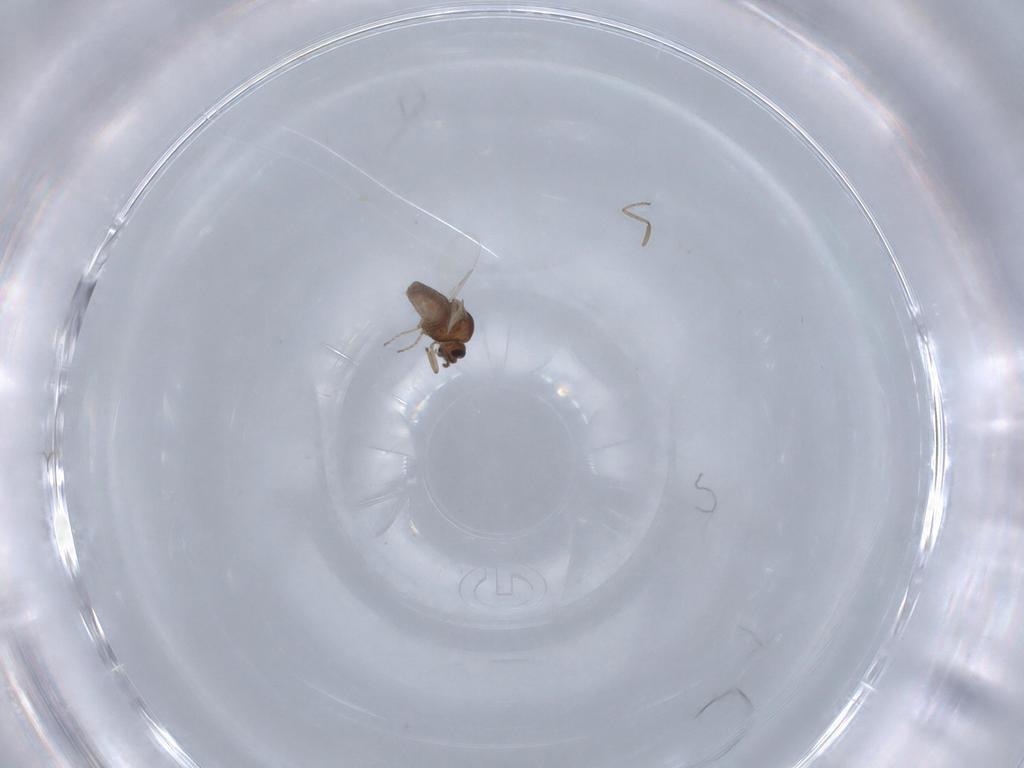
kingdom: Animalia
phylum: Arthropoda
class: Insecta
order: Diptera
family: Ceratopogonidae
